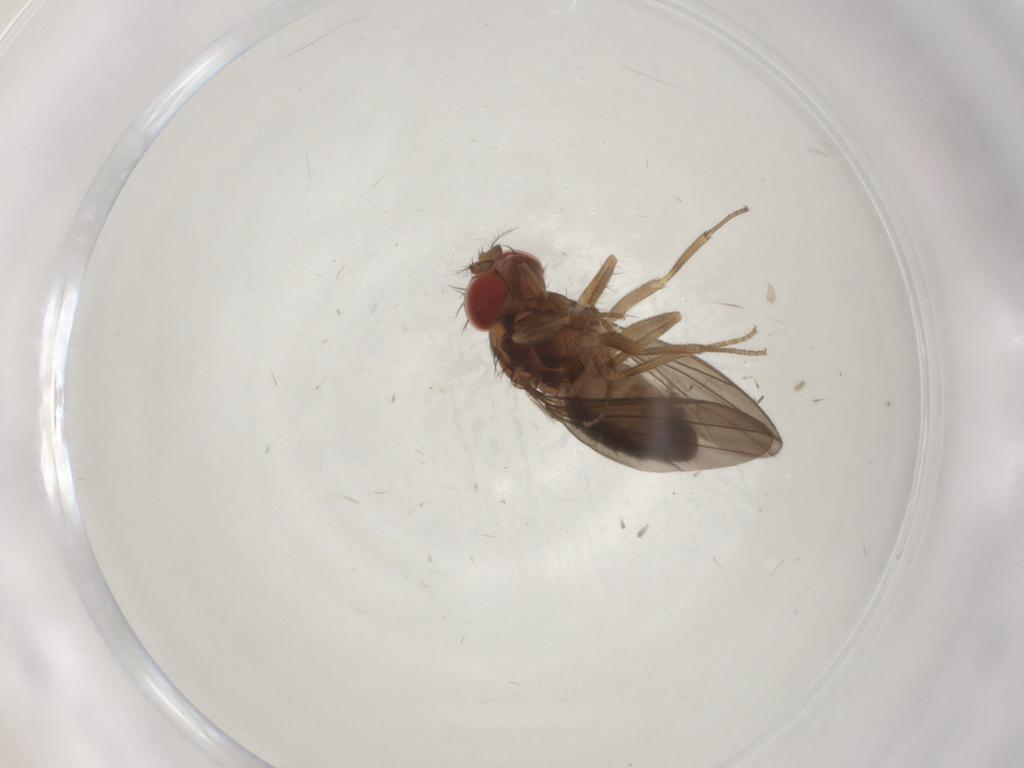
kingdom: Animalia
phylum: Arthropoda
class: Insecta
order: Diptera
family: Drosophilidae
